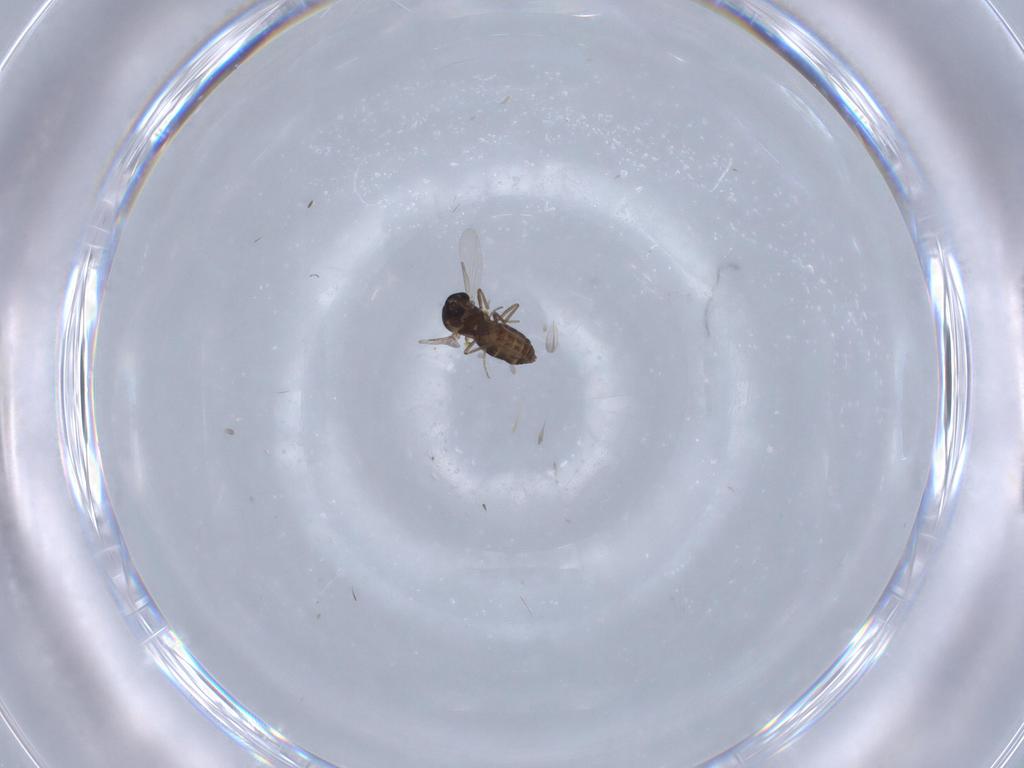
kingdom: Animalia
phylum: Arthropoda
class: Insecta
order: Diptera
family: Ceratopogonidae
